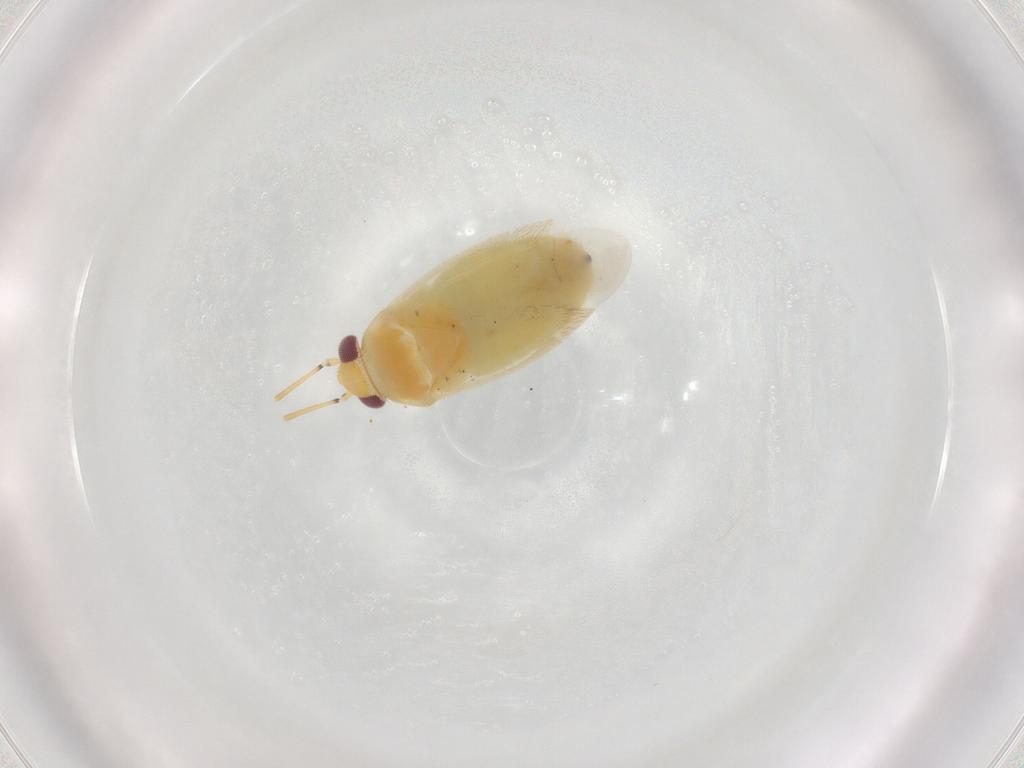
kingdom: Animalia
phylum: Arthropoda
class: Insecta
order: Hemiptera
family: Miridae
